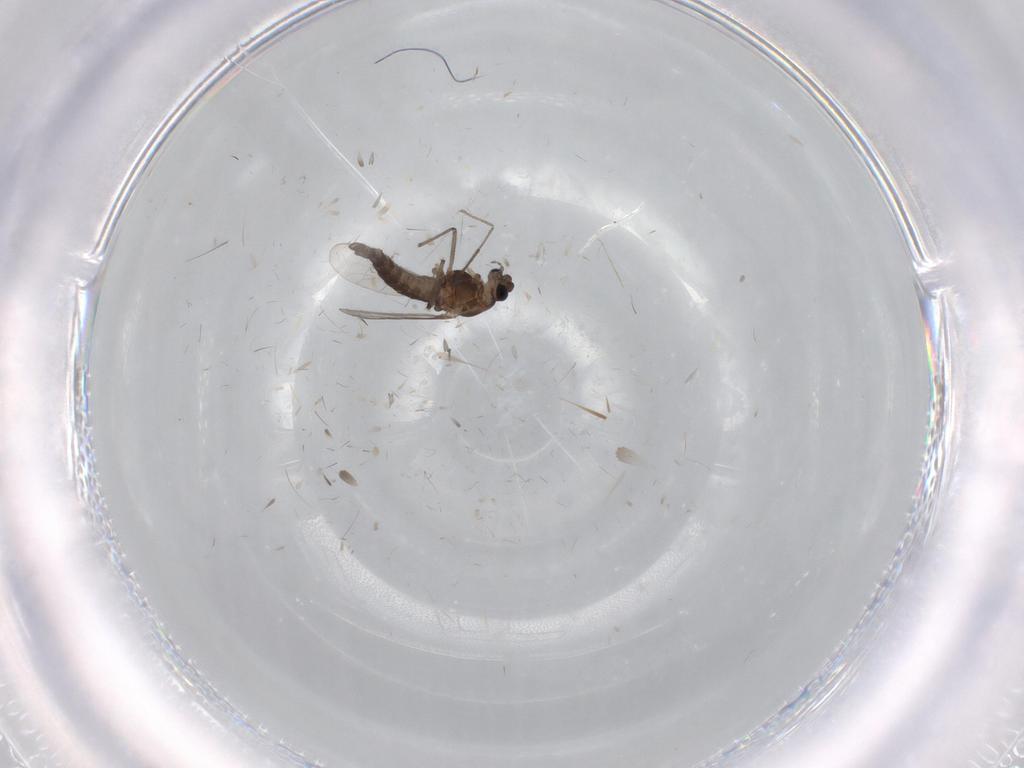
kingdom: Animalia
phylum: Arthropoda
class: Insecta
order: Diptera
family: Chironomidae
